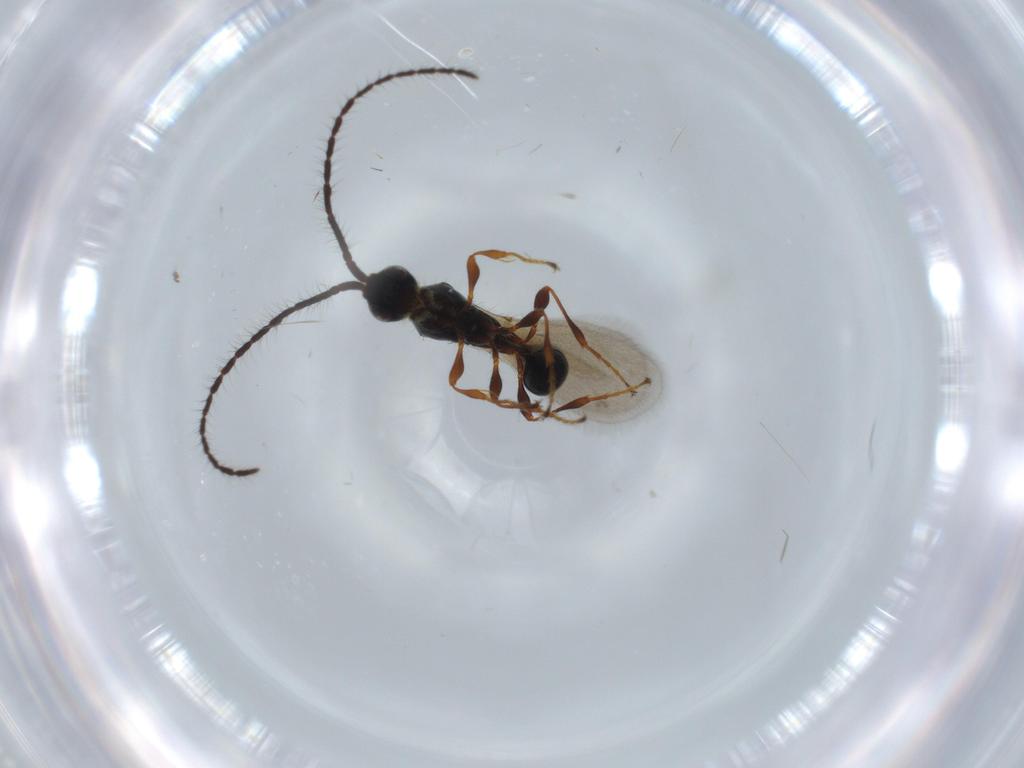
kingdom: Animalia
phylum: Arthropoda
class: Insecta
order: Hymenoptera
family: Diapriidae
